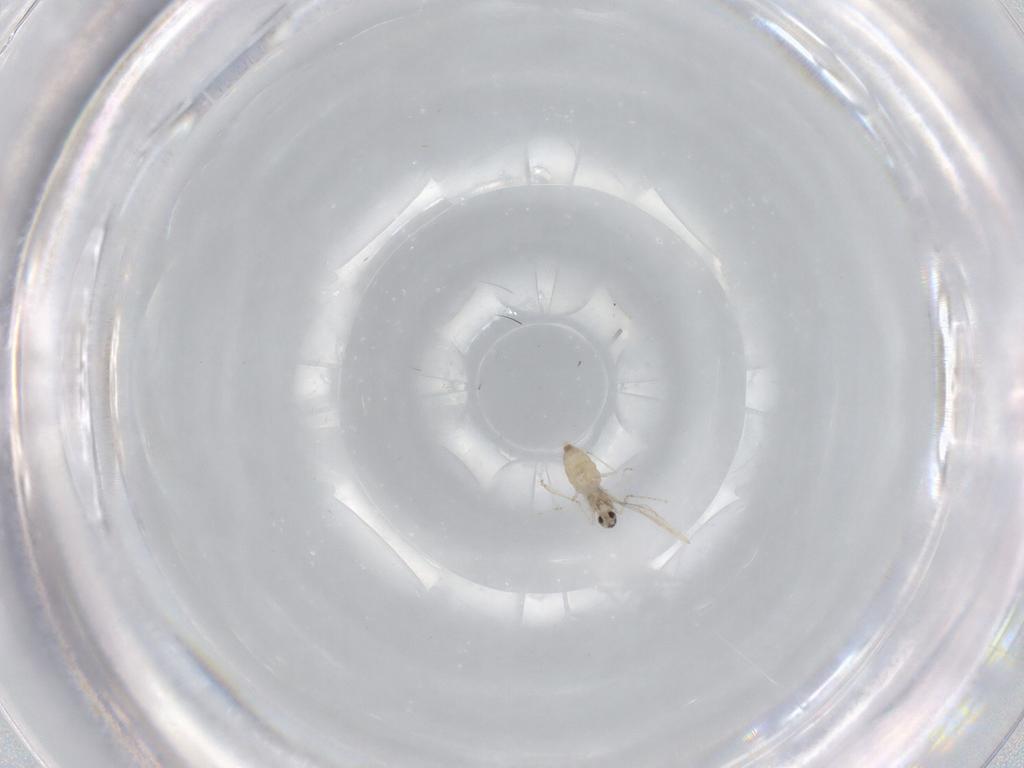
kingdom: Animalia
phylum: Arthropoda
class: Insecta
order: Diptera
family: Cecidomyiidae
